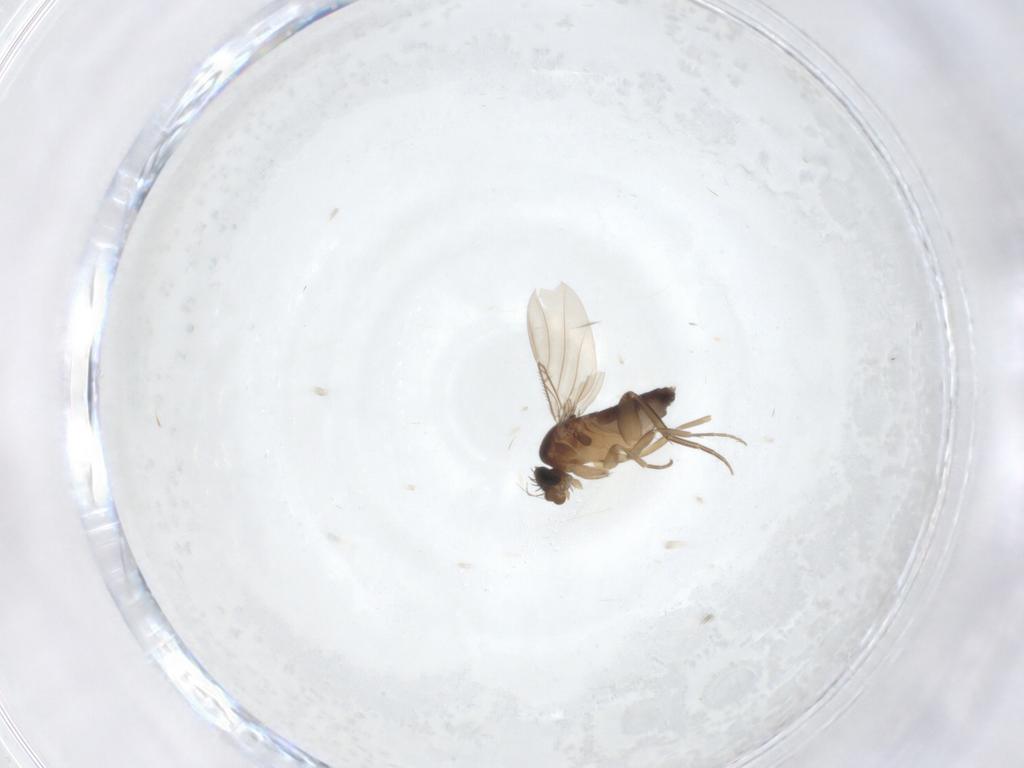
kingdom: Animalia
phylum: Arthropoda
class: Insecta
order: Diptera
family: Phoridae
